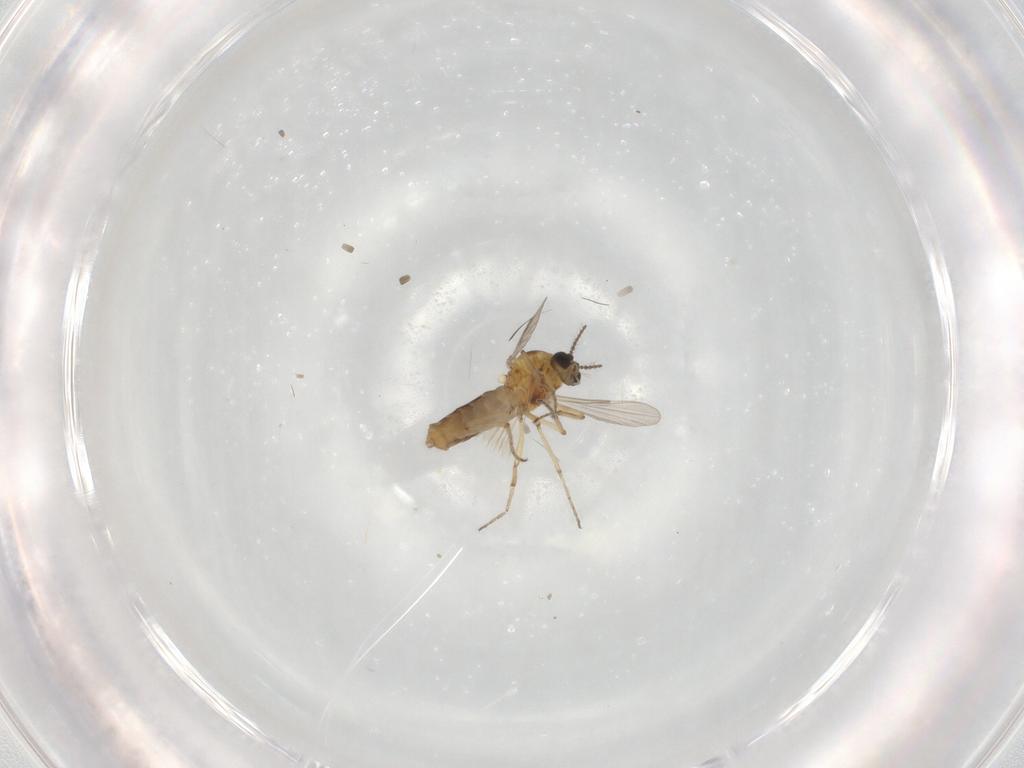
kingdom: Animalia
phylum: Arthropoda
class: Insecta
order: Diptera
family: Ceratopogonidae
